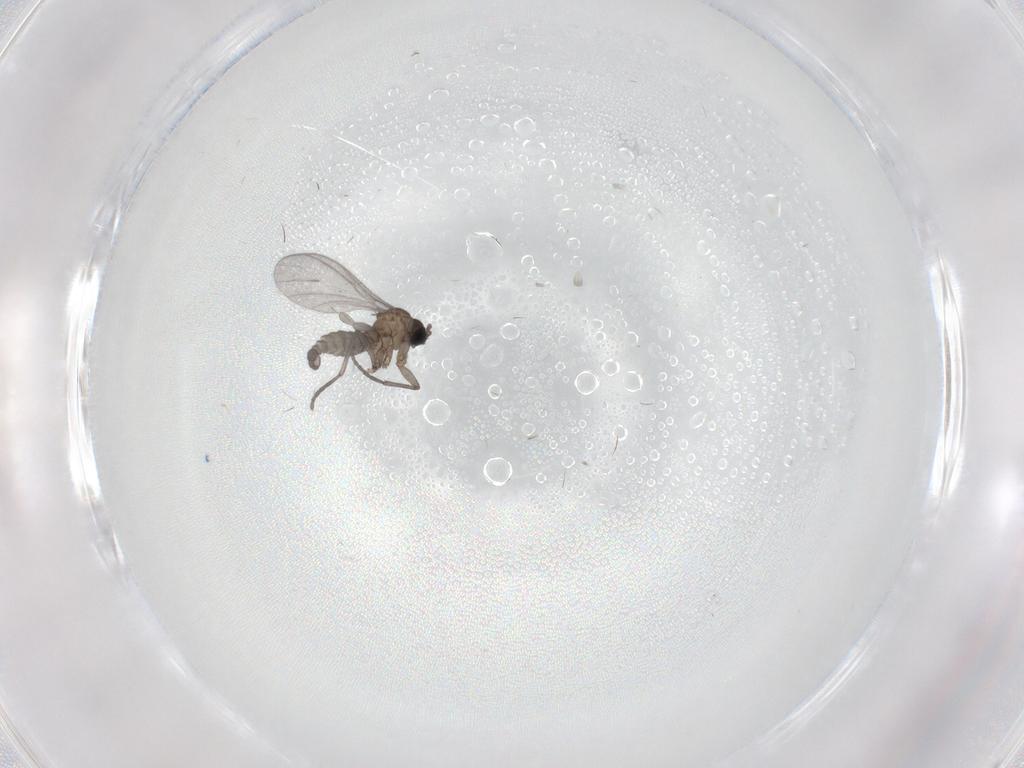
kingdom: Animalia
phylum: Arthropoda
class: Insecta
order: Diptera
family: Sciaridae
